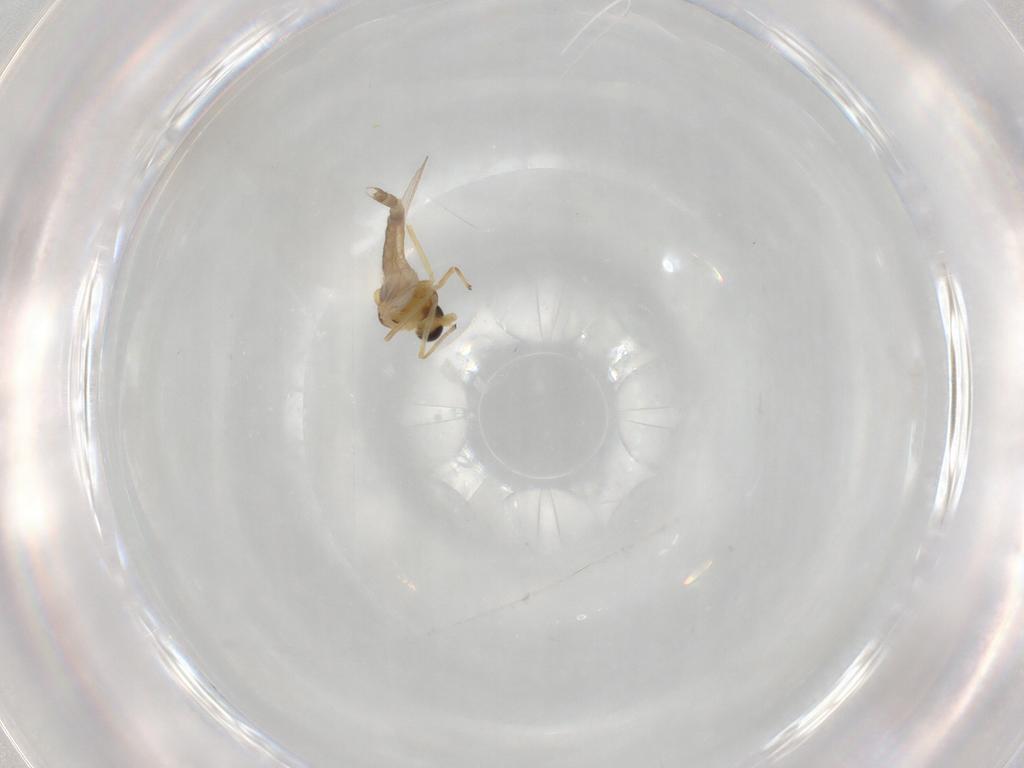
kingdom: Animalia
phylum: Arthropoda
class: Insecta
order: Diptera
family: Chironomidae
